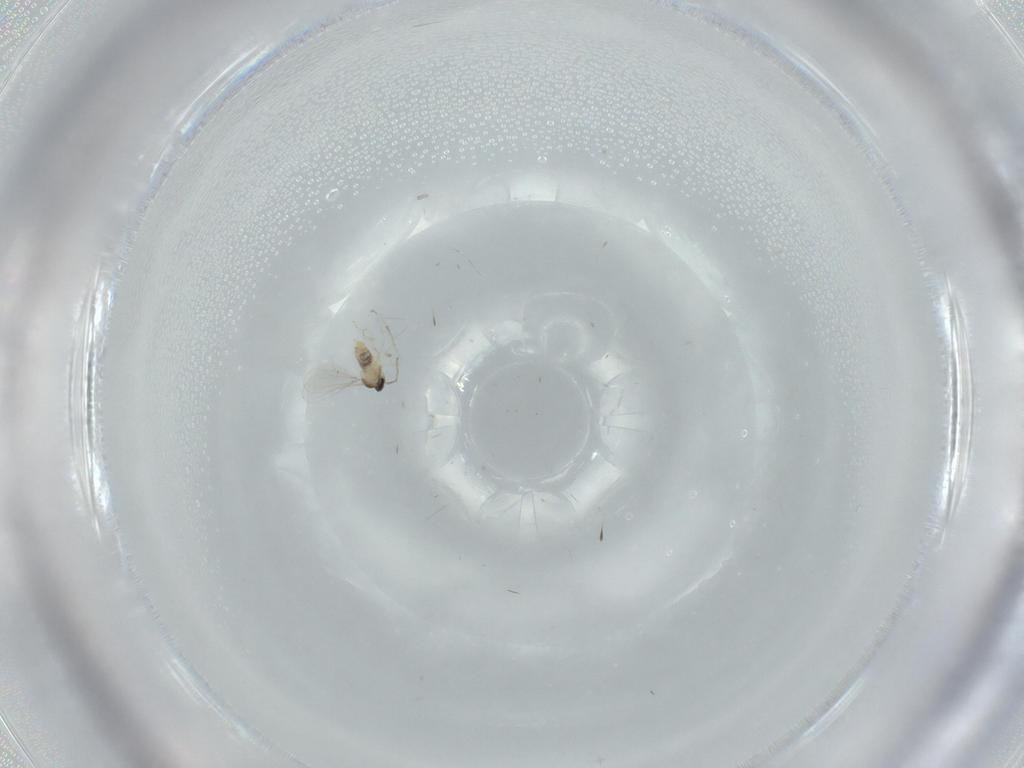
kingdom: Animalia
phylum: Arthropoda
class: Insecta
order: Diptera
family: Cecidomyiidae
